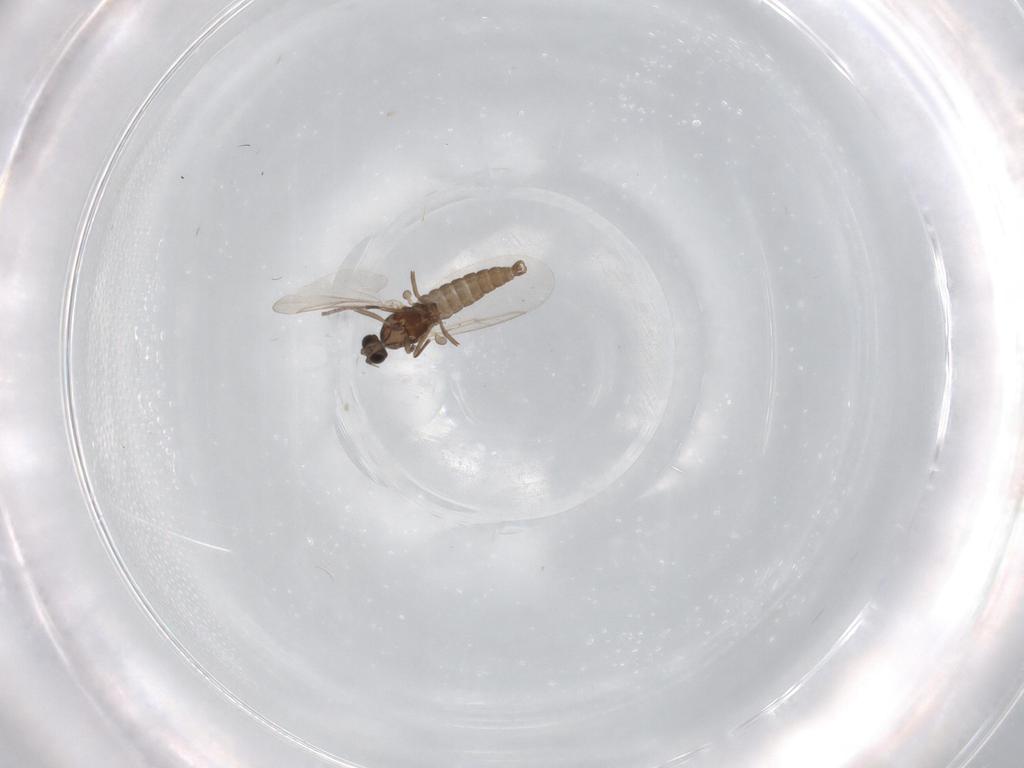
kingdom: Animalia
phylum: Arthropoda
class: Insecta
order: Diptera
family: Cecidomyiidae
